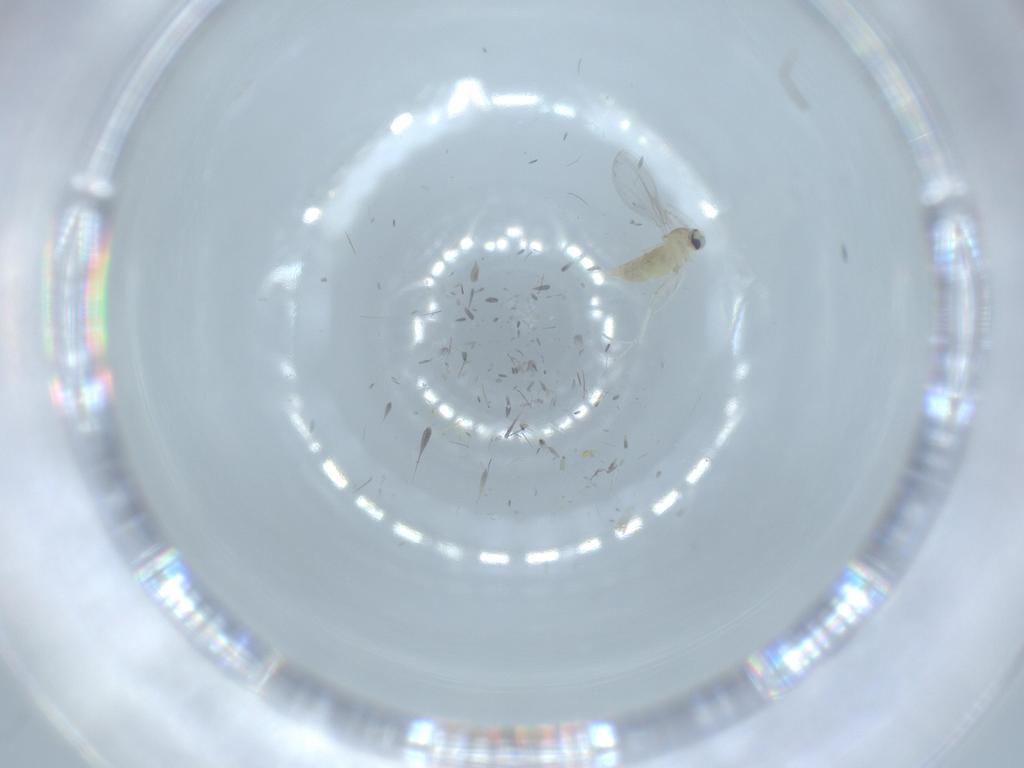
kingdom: Animalia
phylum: Arthropoda
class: Insecta
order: Diptera
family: Cecidomyiidae
